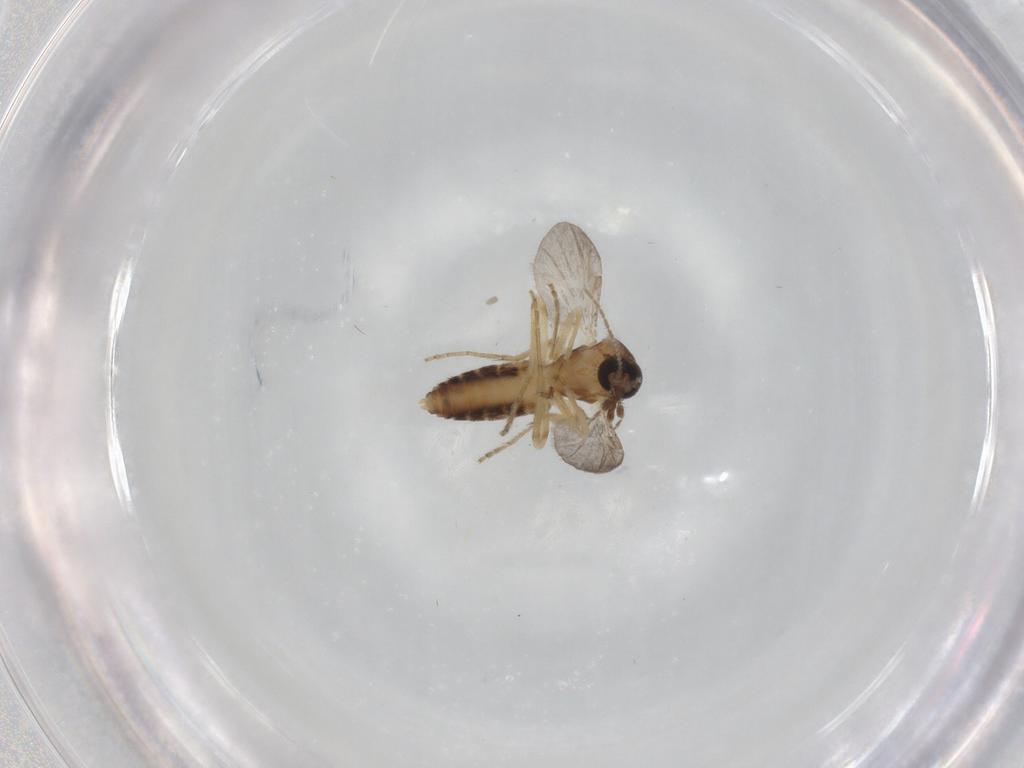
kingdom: Animalia
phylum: Arthropoda
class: Insecta
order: Diptera
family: Ceratopogonidae
